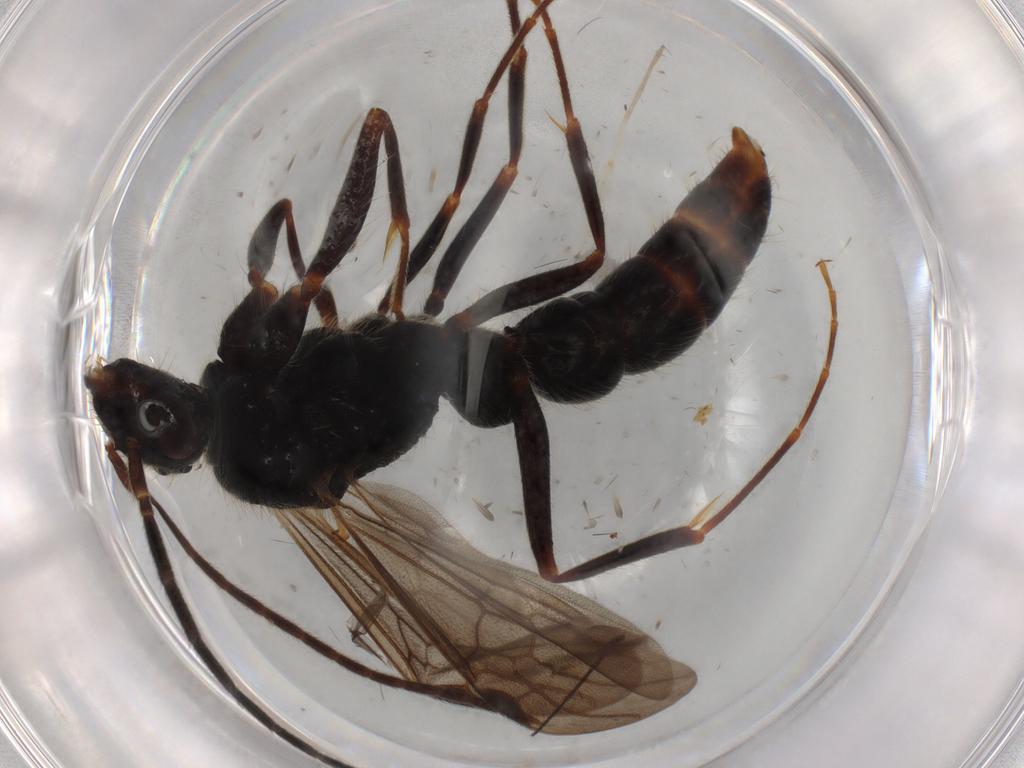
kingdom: Animalia
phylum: Arthropoda
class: Insecta
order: Hymenoptera
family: Formicidae
